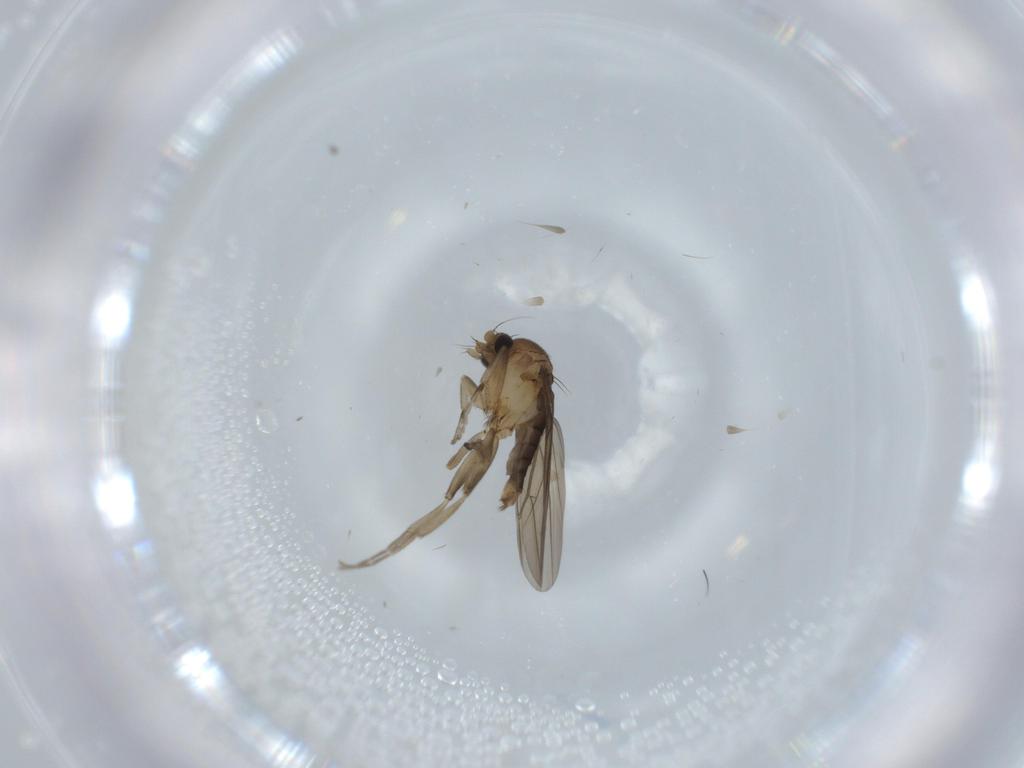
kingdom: Animalia
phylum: Arthropoda
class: Insecta
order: Diptera
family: Phoridae
